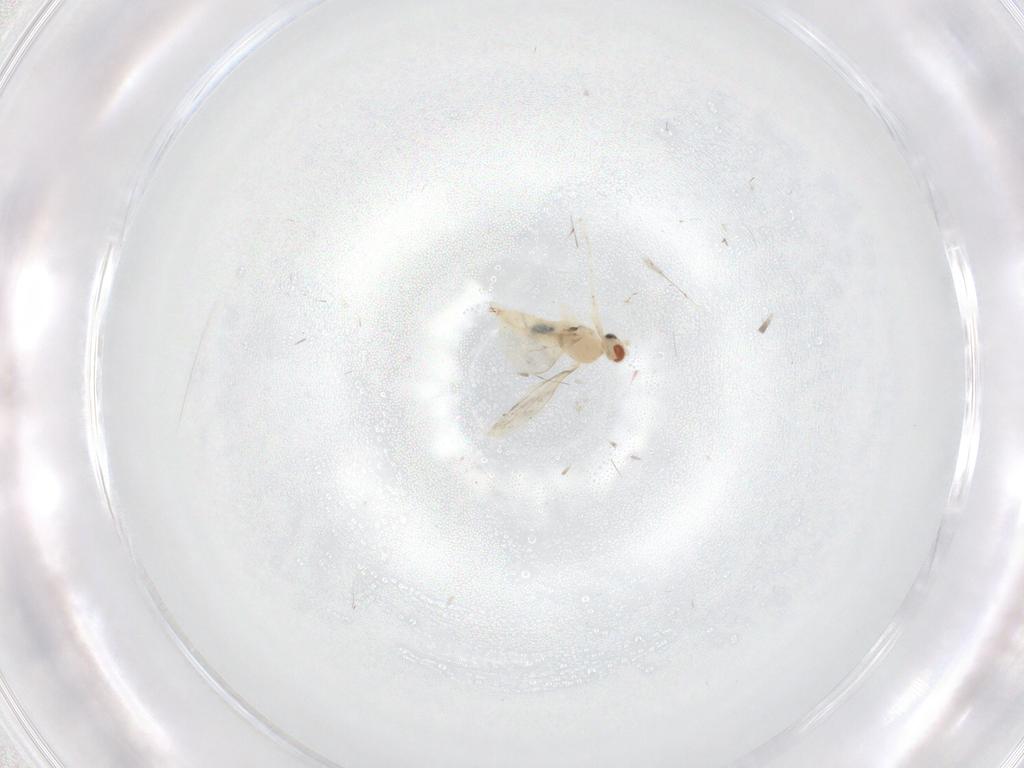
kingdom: Animalia
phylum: Arthropoda
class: Insecta
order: Diptera
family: Cecidomyiidae
